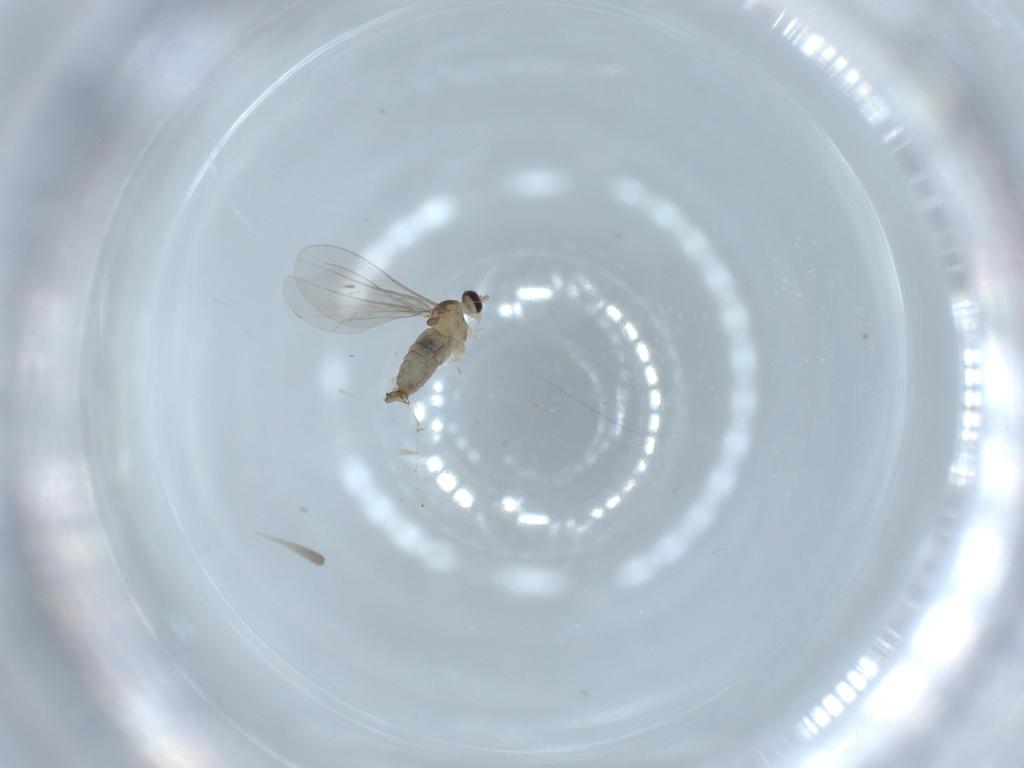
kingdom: Animalia
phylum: Arthropoda
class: Insecta
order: Diptera
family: Cecidomyiidae
